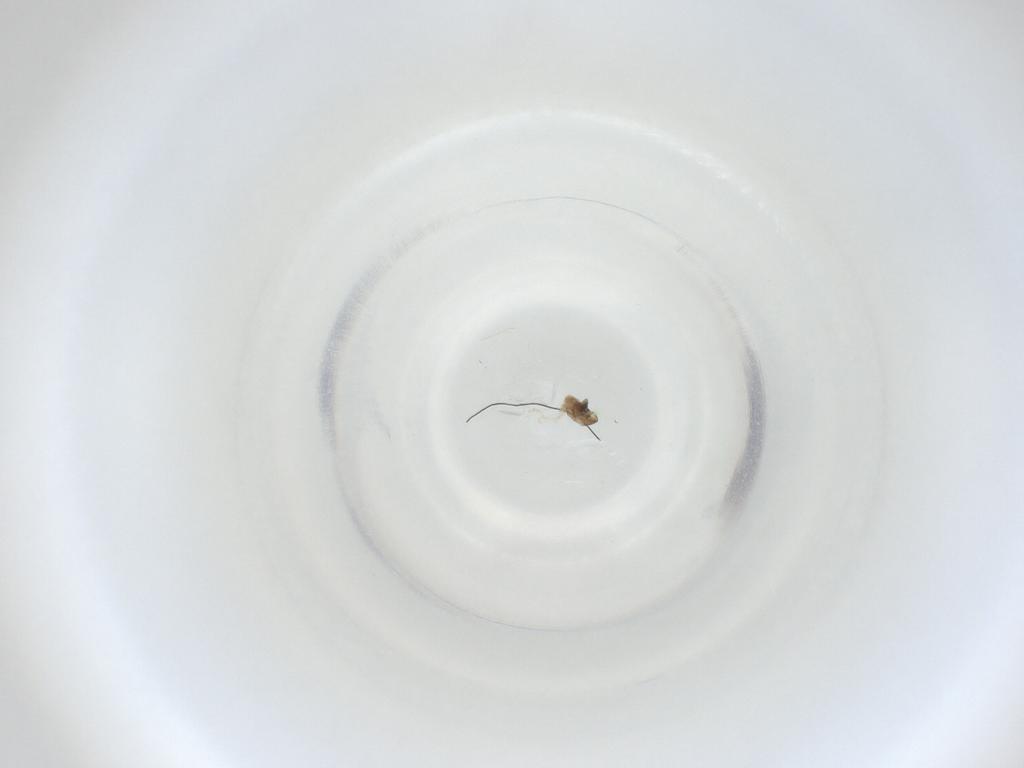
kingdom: Animalia
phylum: Arthropoda
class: Insecta
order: Diptera
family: Cecidomyiidae
